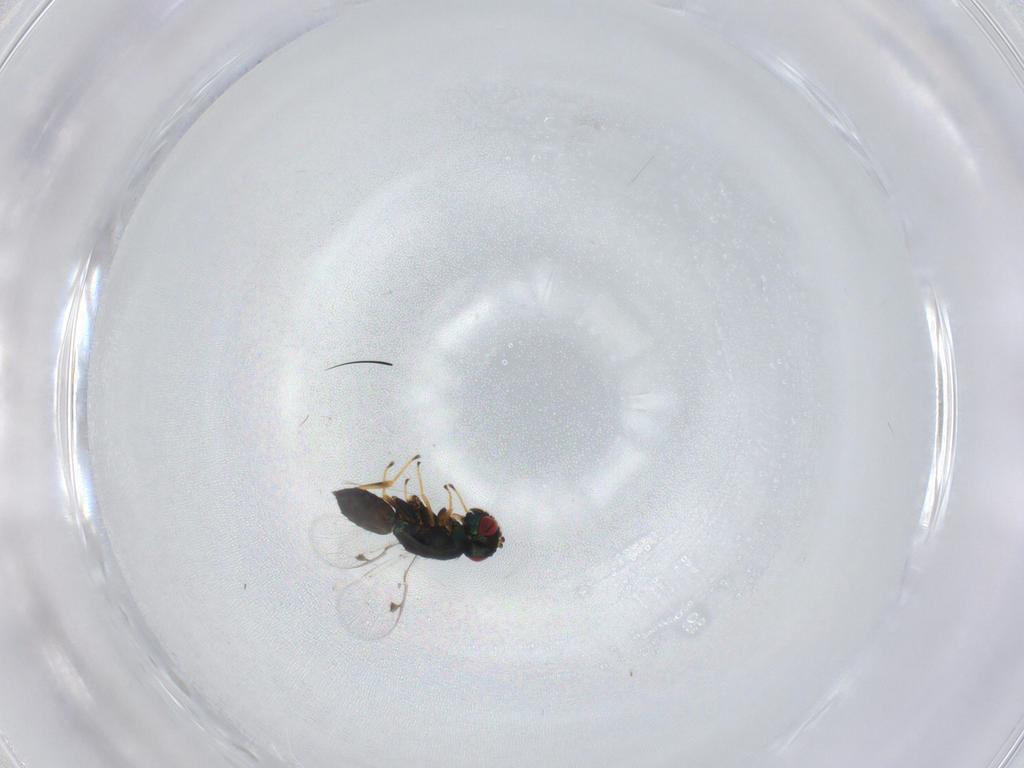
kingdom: Animalia
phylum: Arthropoda
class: Insecta
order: Hymenoptera
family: Pteromalidae
